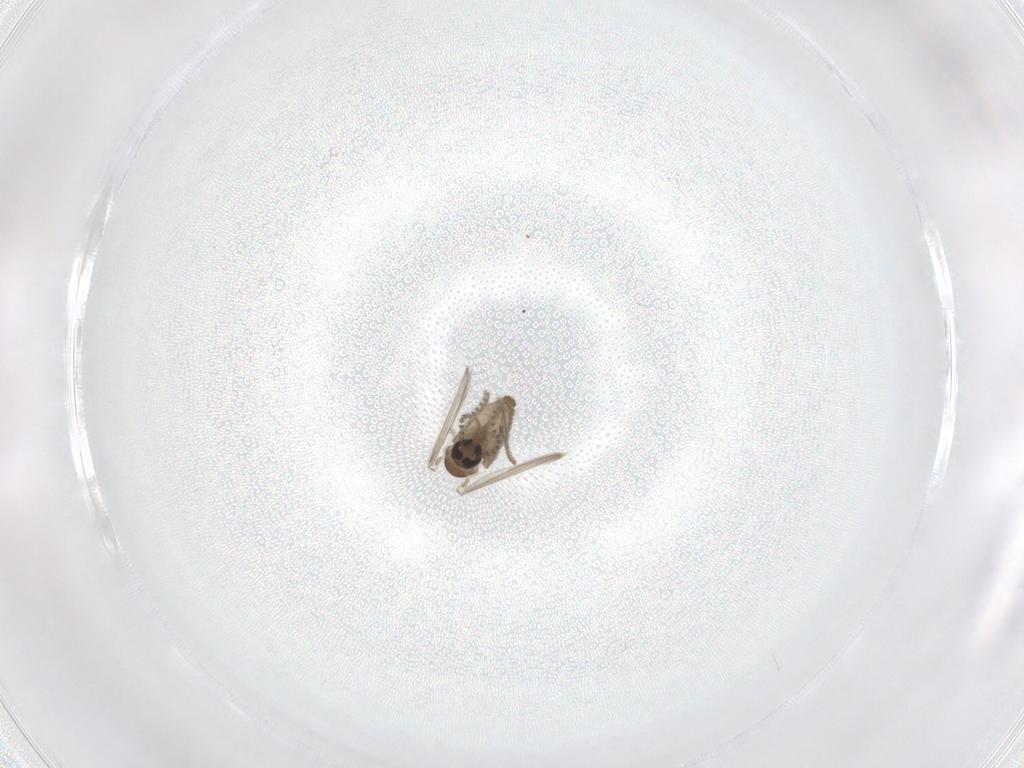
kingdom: Animalia
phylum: Arthropoda
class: Insecta
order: Diptera
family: Psychodidae
